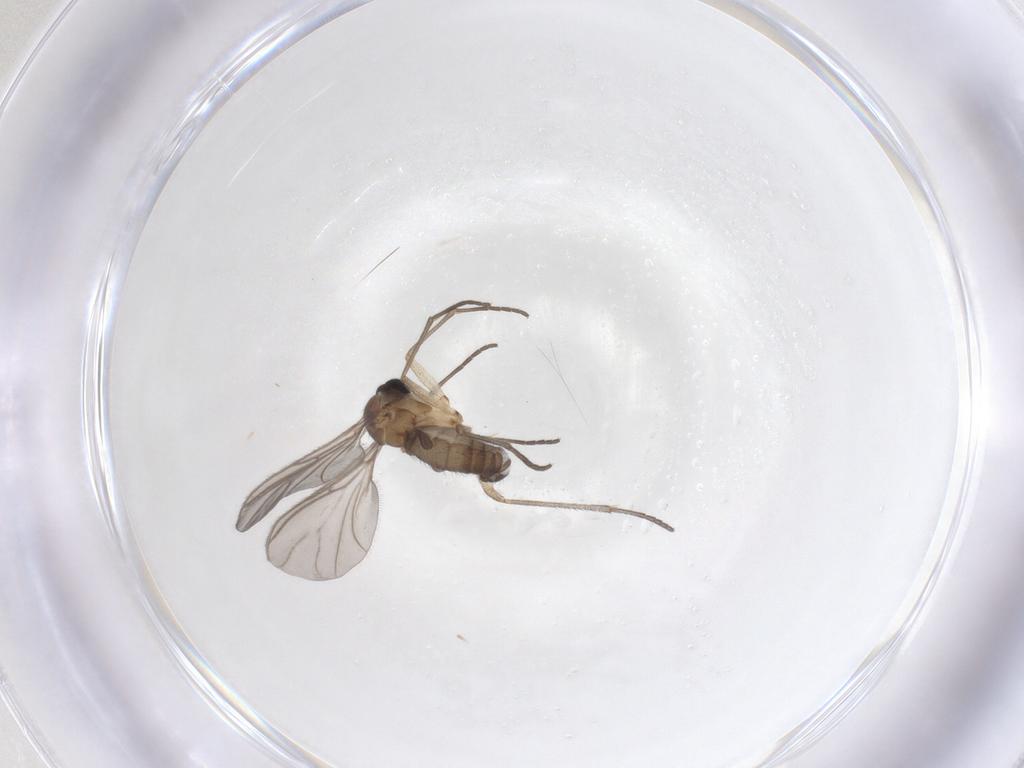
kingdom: Animalia
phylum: Arthropoda
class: Insecta
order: Diptera
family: Sciaridae
